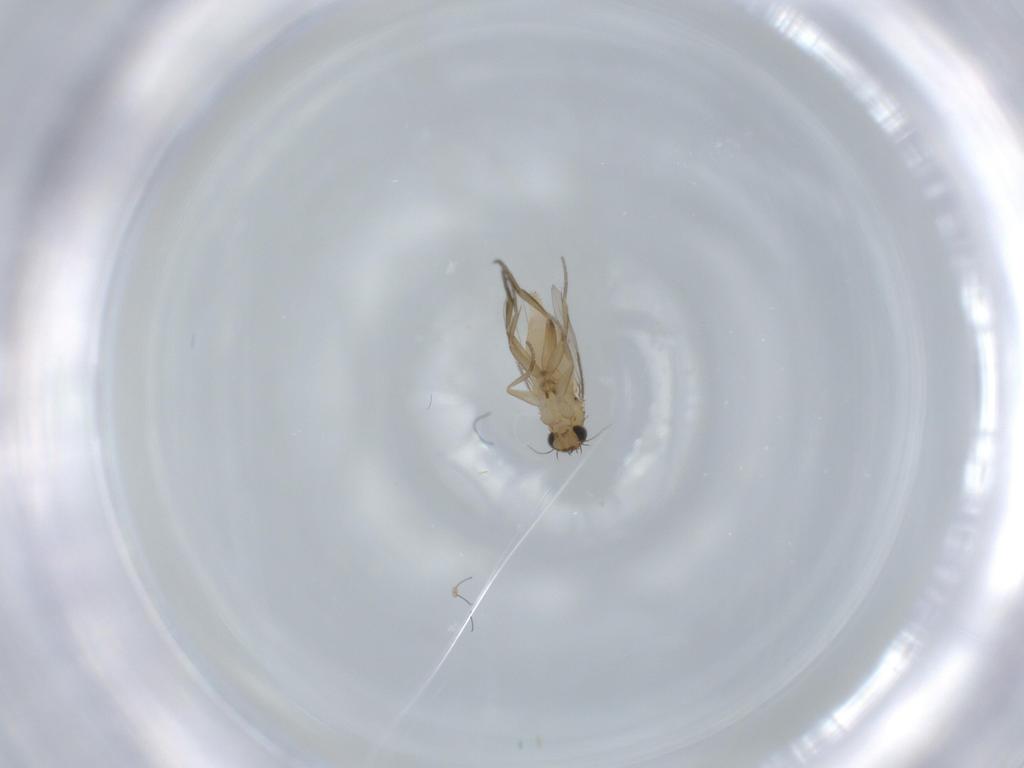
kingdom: Animalia
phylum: Arthropoda
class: Insecta
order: Diptera
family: Phoridae
